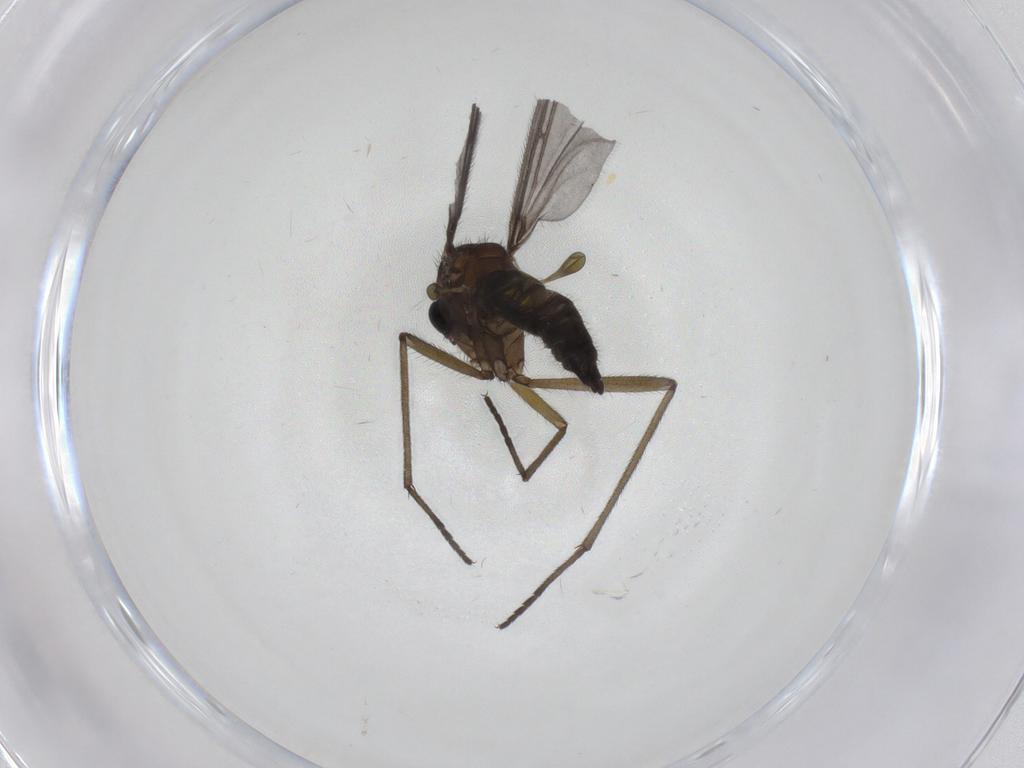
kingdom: Animalia
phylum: Arthropoda
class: Insecta
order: Diptera
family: Sciaridae
